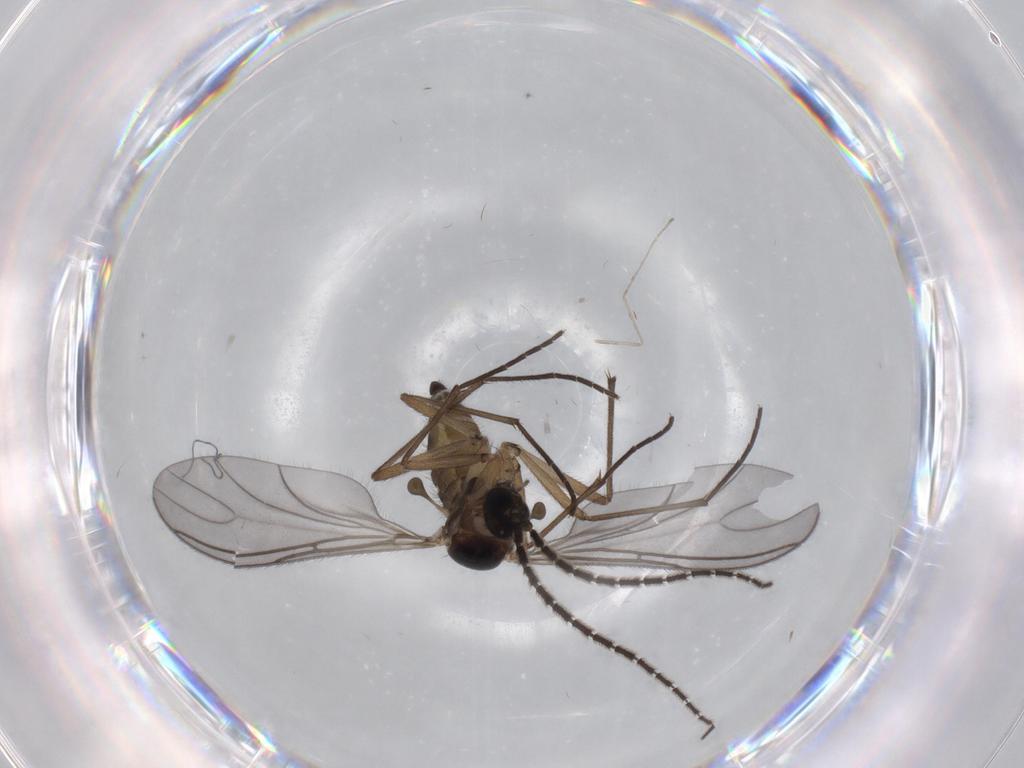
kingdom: Animalia
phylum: Arthropoda
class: Insecta
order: Diptera
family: Sciaridae
